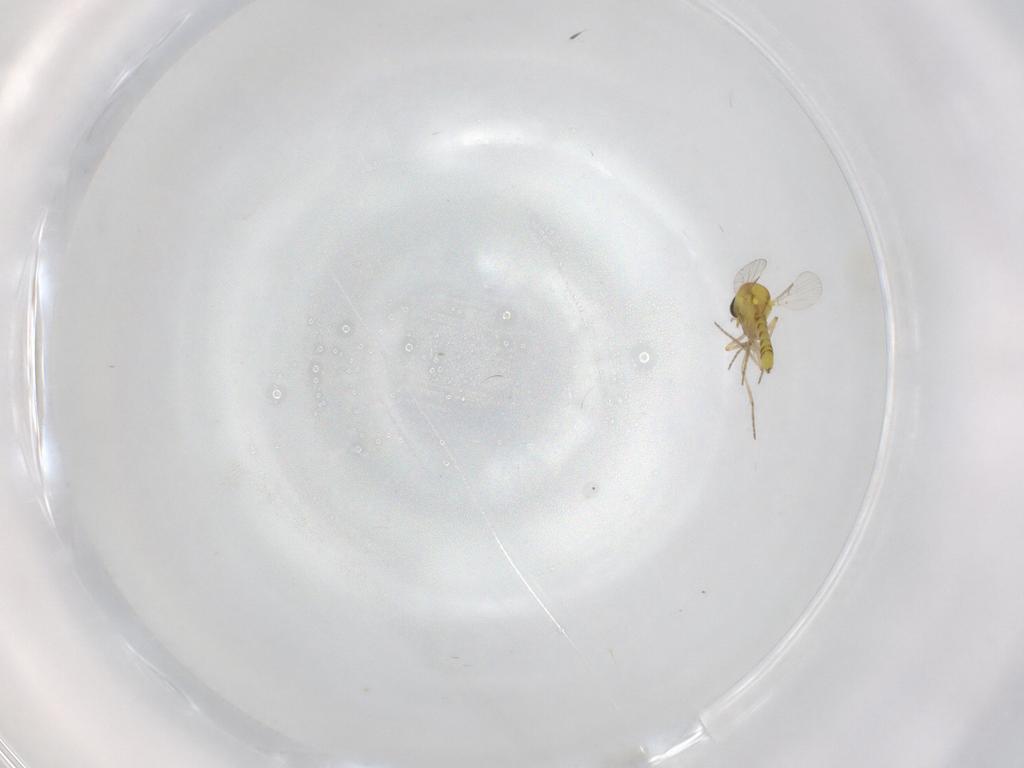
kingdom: Animalia
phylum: Arthropoda
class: Insecta
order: Diptera
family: Ceratopogonidae
